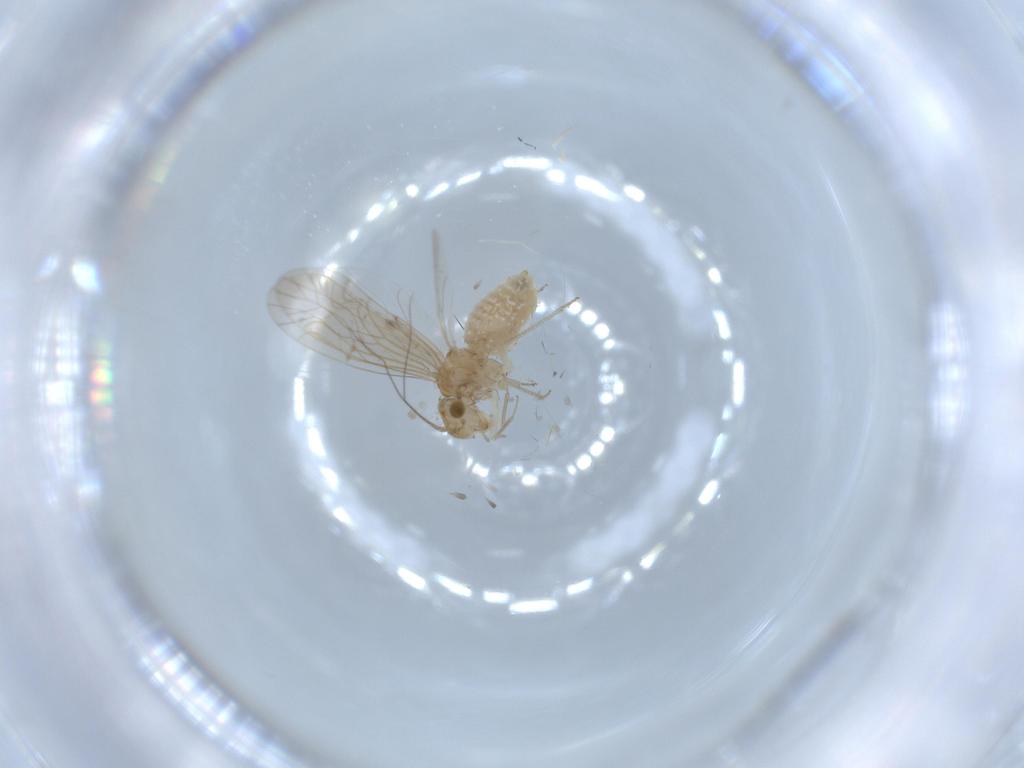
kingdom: Animalia
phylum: Arthropoda
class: Insecta
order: Psocodea
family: Lachesillidae
